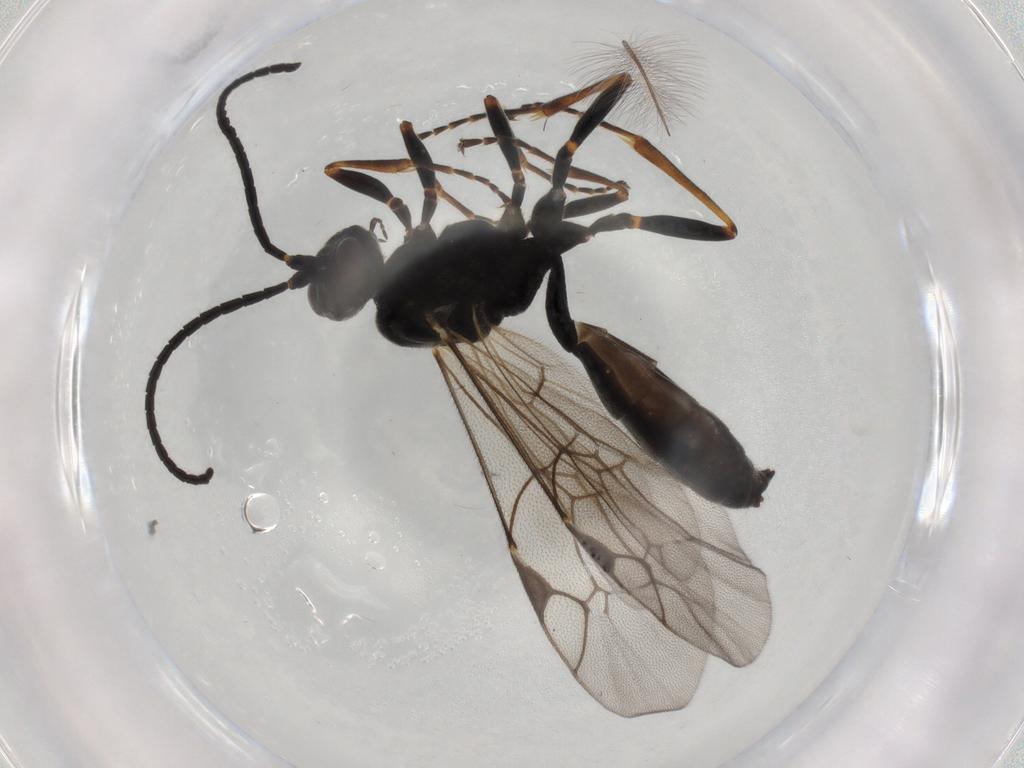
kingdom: Animalia
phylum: Arthropoda
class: Insecta
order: Hymenoptera
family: Ichneumonidae
